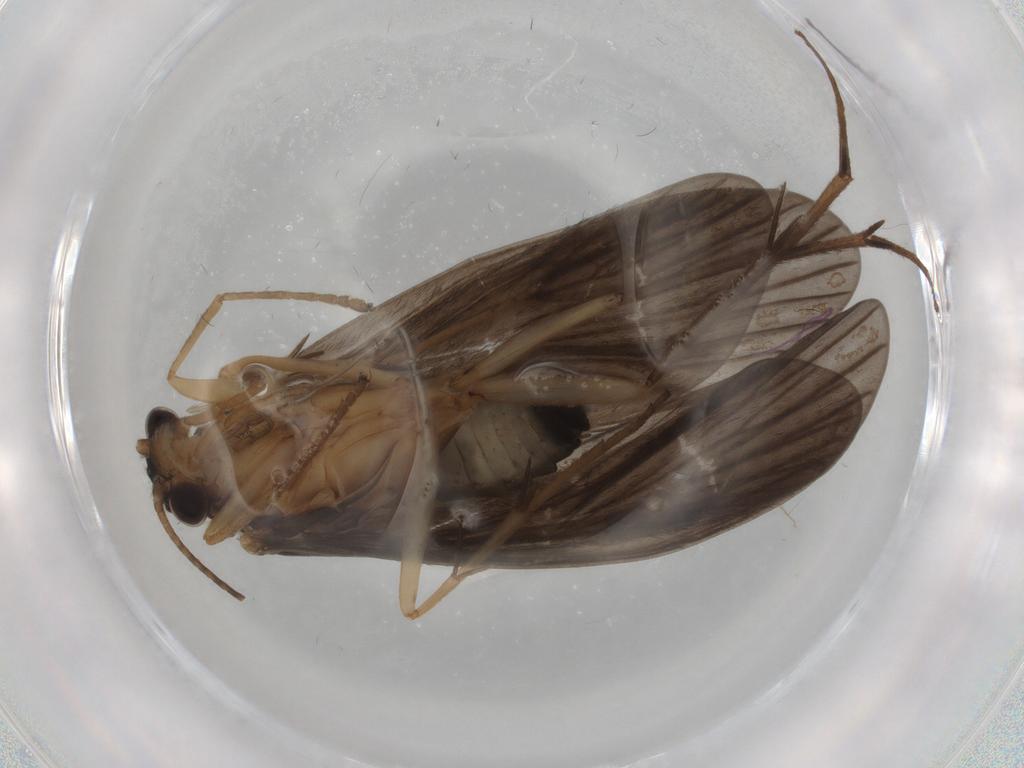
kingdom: Animalia
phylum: Arthropoda
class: Insecta
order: Trichoptera
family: Philopotamidae
